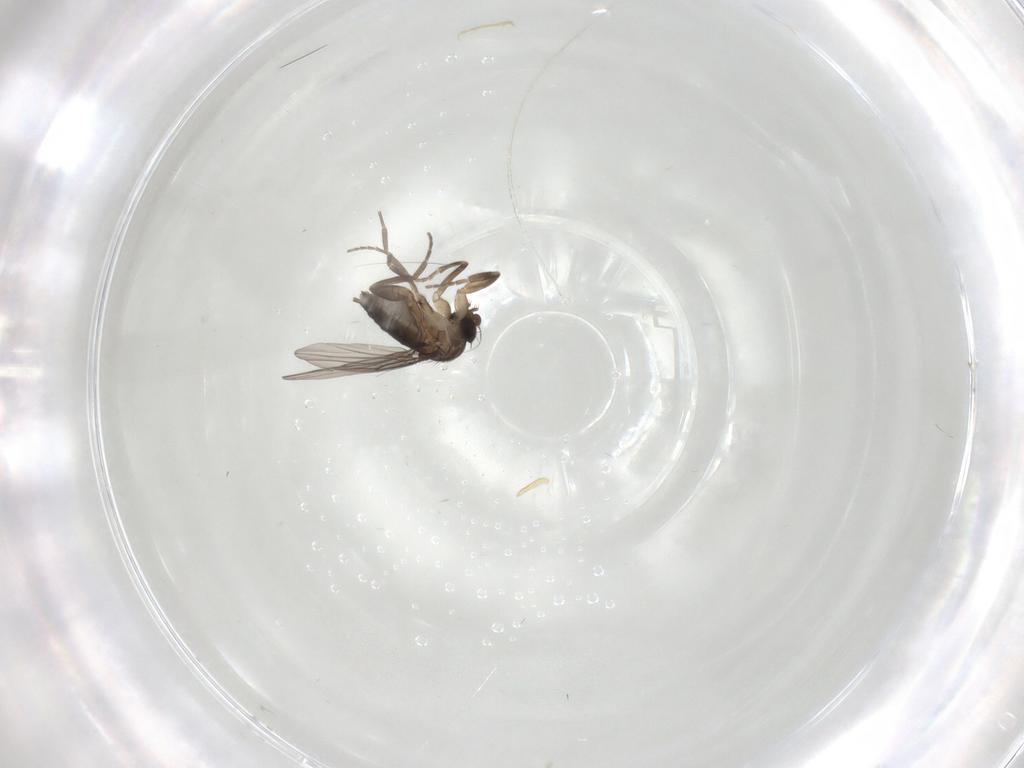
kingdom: Animalia
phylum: Arthropoda
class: Insecta
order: Diptera
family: Phoridae
